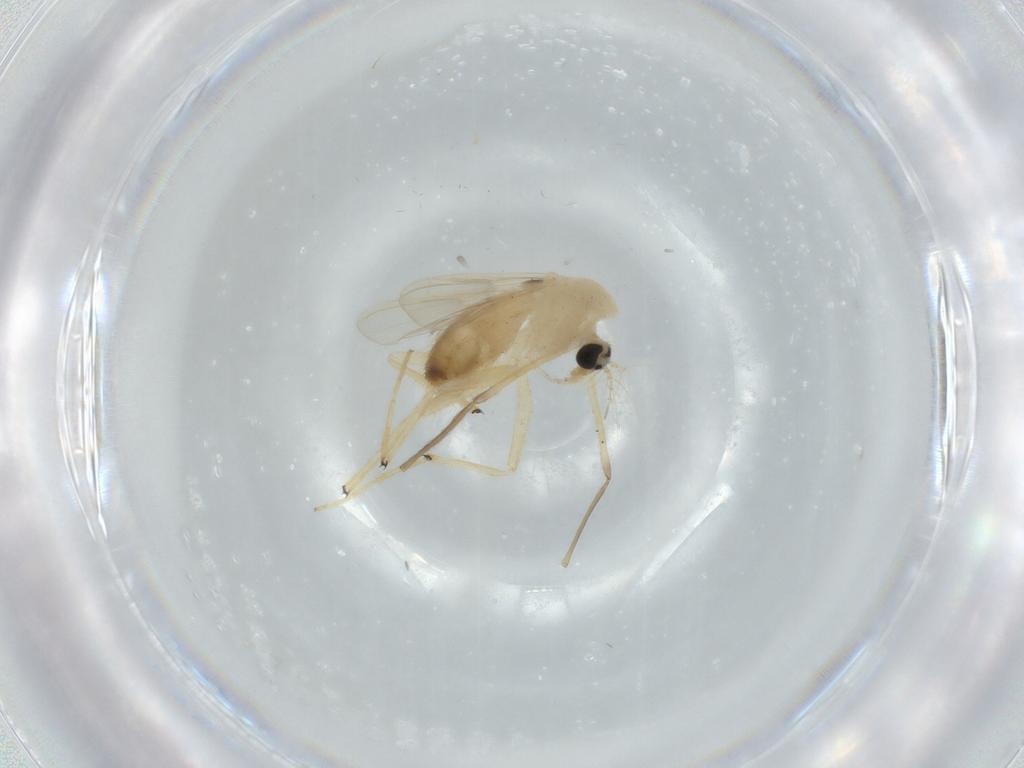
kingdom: Animalia
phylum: Arthropoda
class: Insecta
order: Diptera
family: Chironomidae
